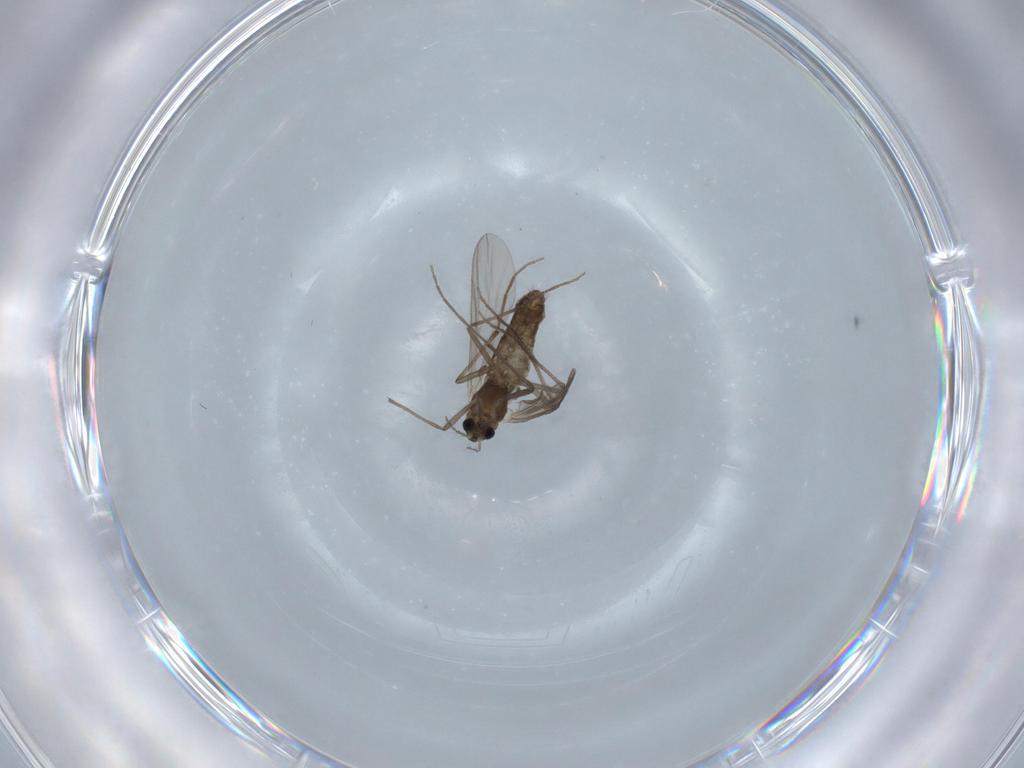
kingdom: Animalia
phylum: Arthropoda
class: Insecta
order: Diptera
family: Chironomidae
